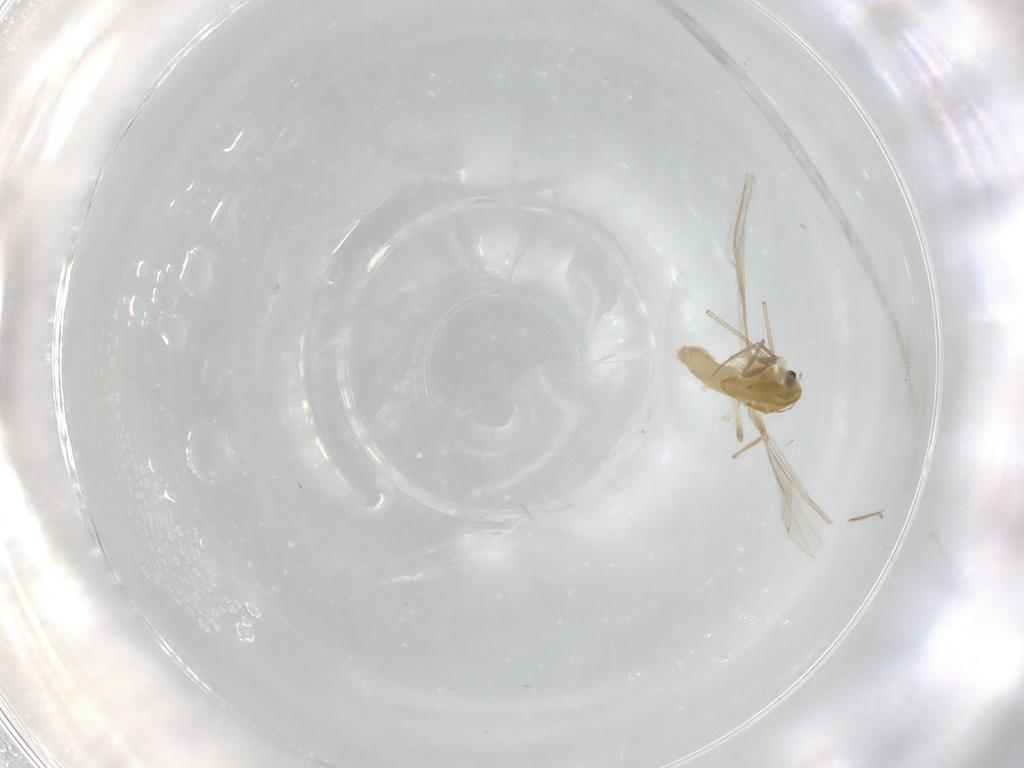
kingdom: Animalia
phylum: Arthropoda
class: Insecta
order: Diptera
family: Chironomidae
